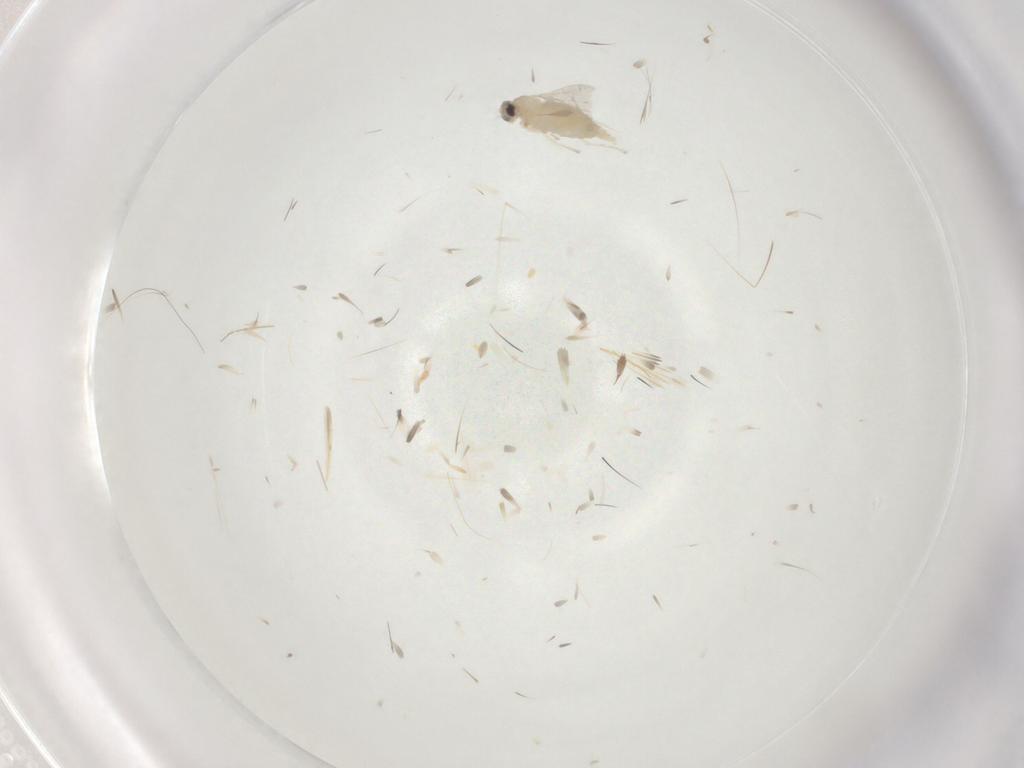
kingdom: Animalia
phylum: Arthropoda
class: Insecta
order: Diptera
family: Cecidomyiidae
